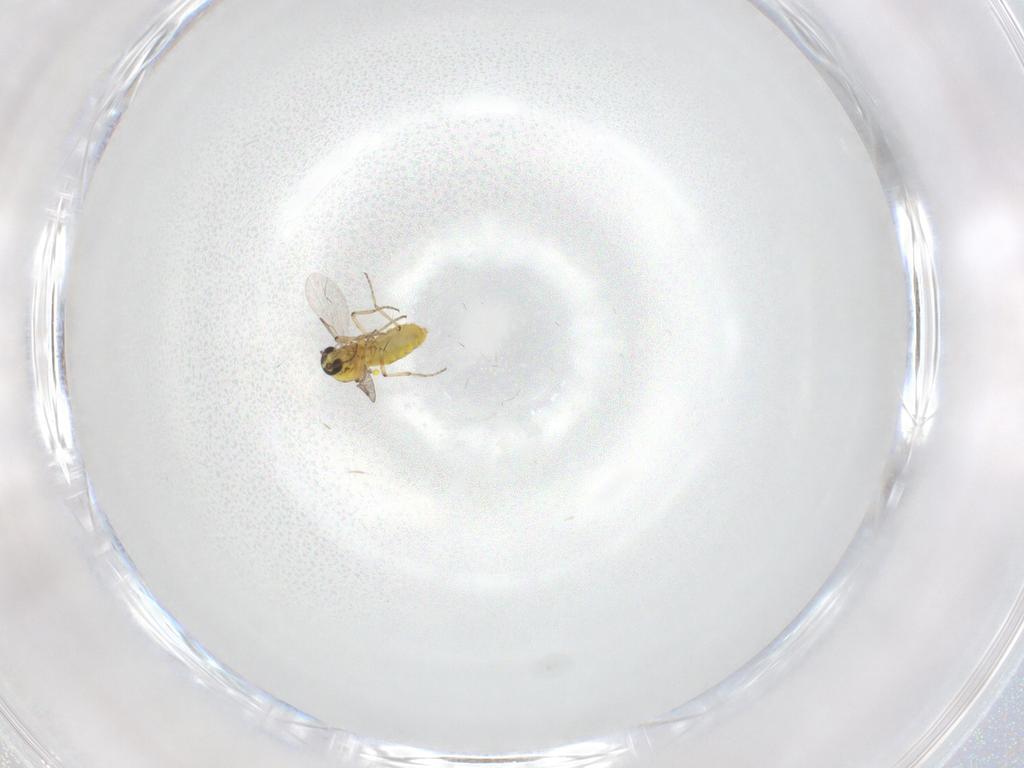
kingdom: Animalia
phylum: Arthropoda
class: Insecta
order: Diptera
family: Ceratopogonidae
